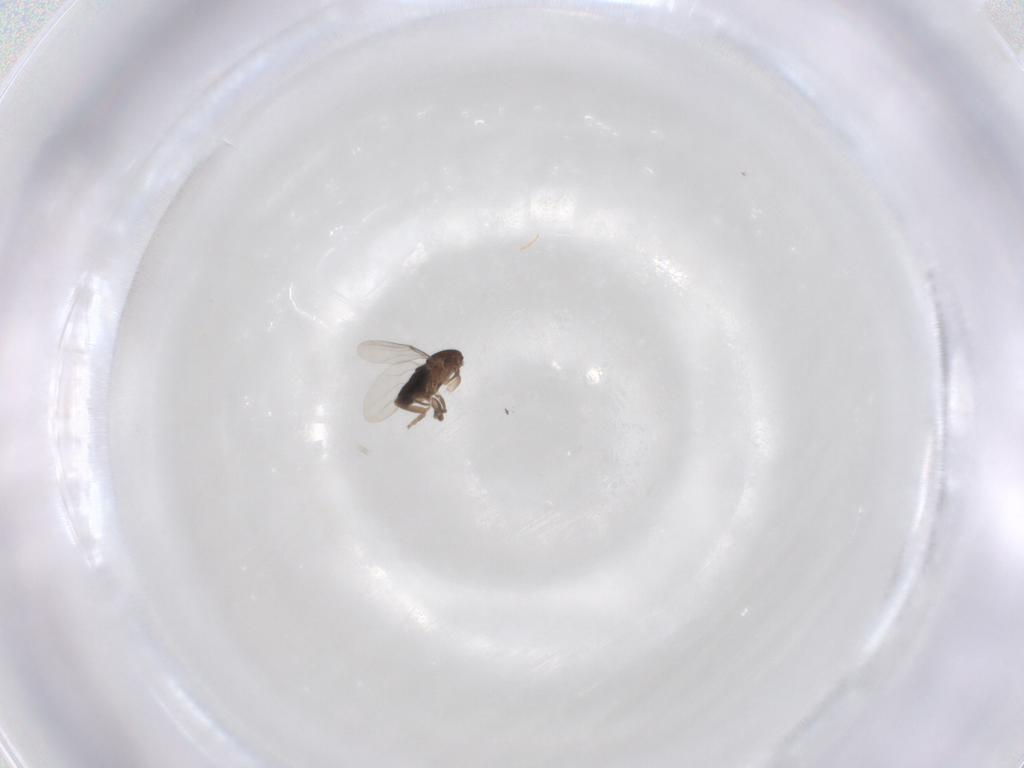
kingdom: Animalia
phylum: Arthropoda
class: Insecta
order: Diptera
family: Phoridae
